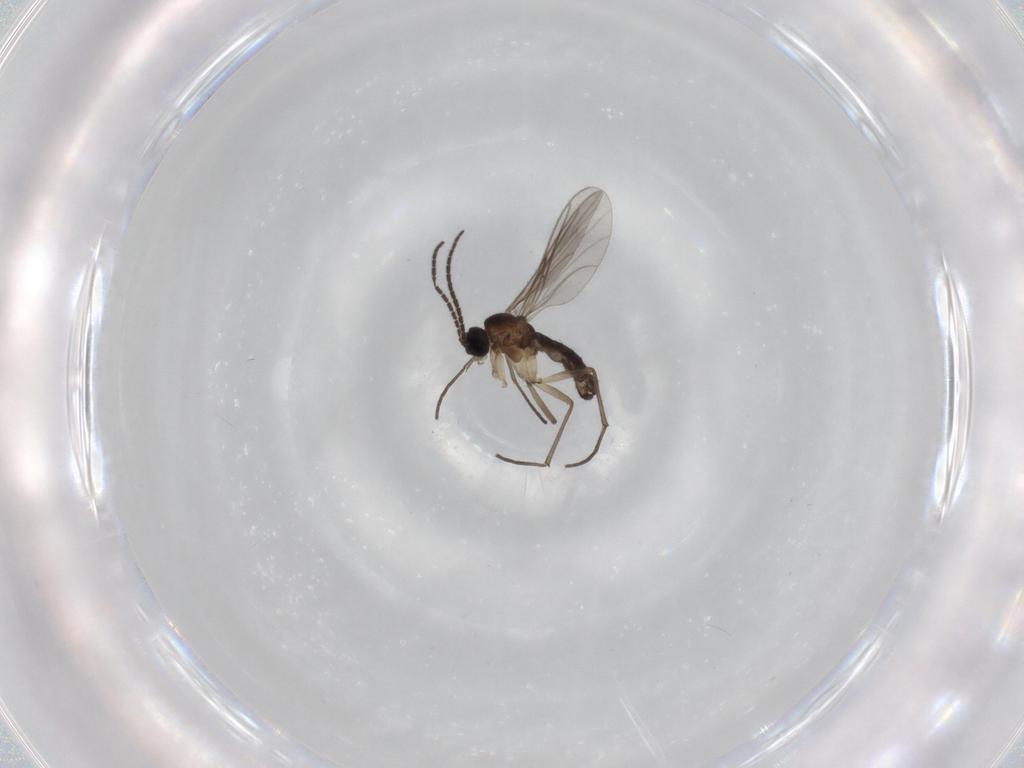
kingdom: Animalia
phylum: Arthropoda
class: Insecta
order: Diptera
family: Sciaridae
